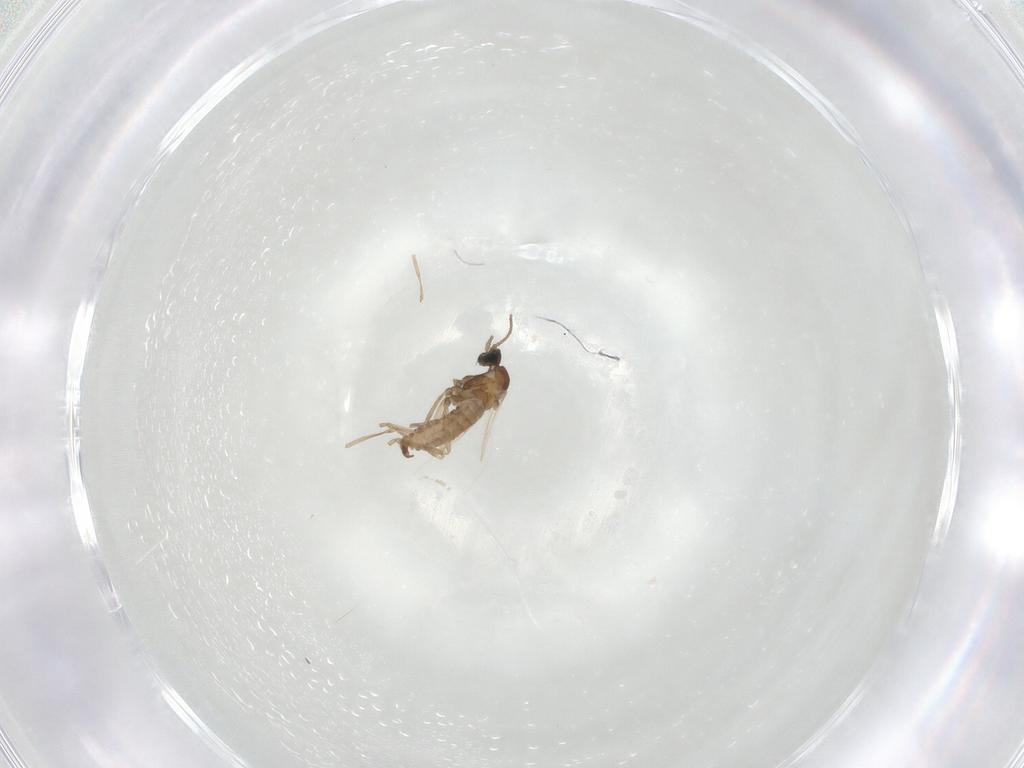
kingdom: Animalia
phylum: Arthropoda
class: Insecta
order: Diptera
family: Cecidomyiidae
